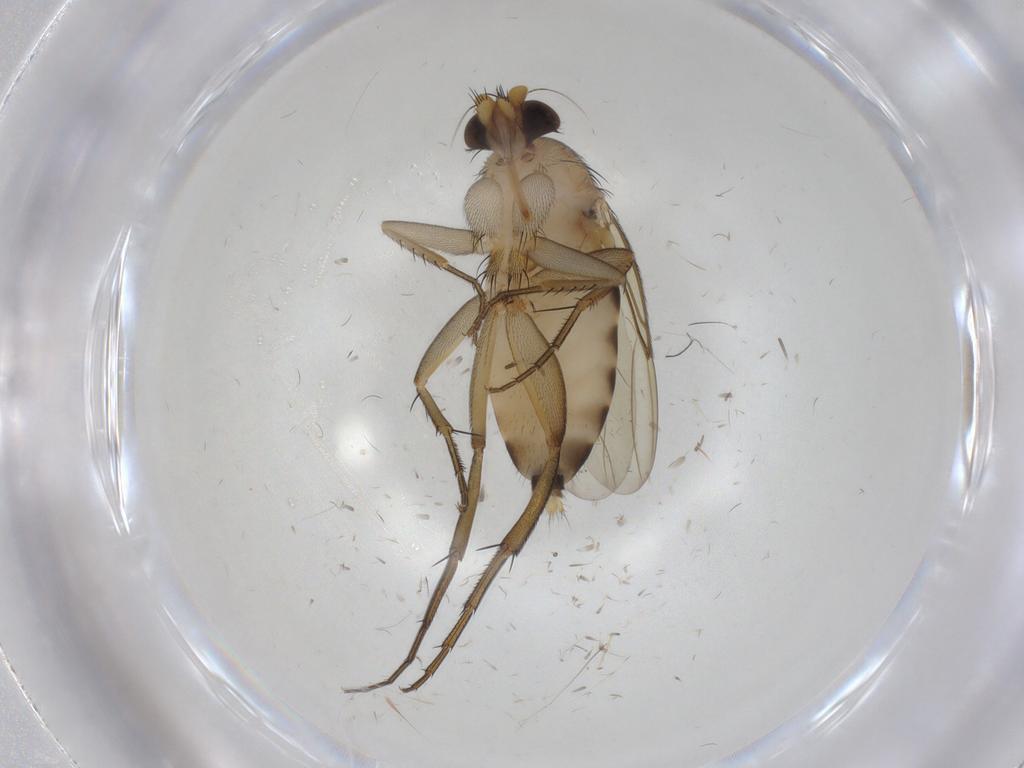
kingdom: Animalia
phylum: Arthropoda
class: Insecta
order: Diptera
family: Phoridae
